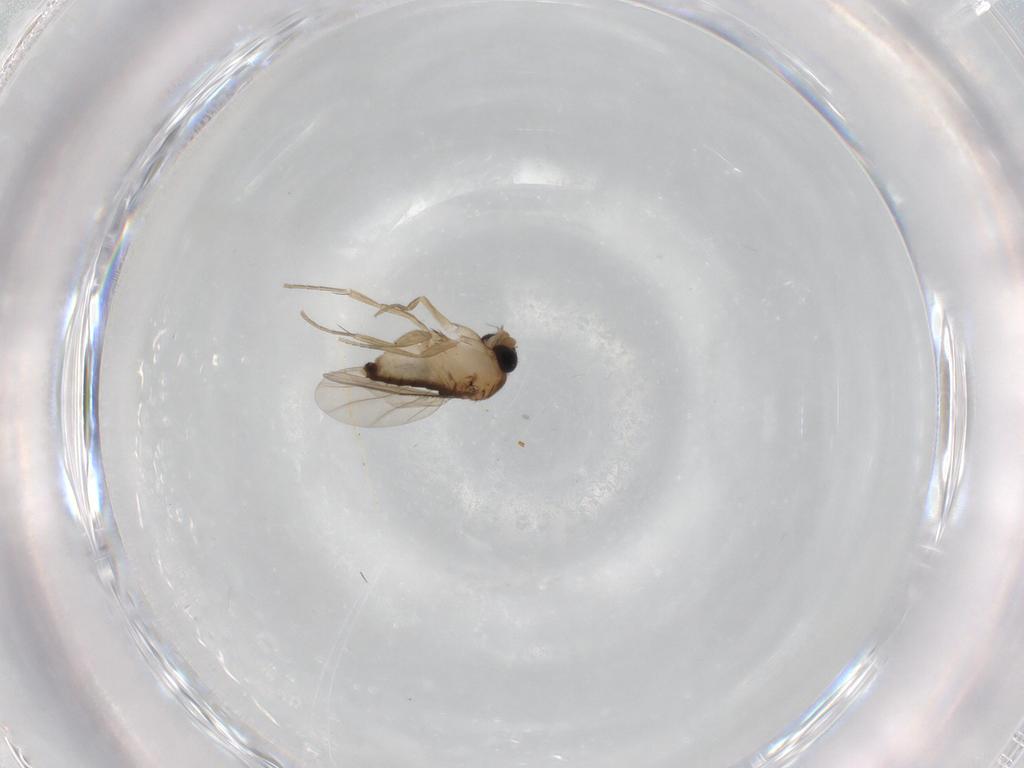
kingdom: Animalia
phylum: Arthropoda
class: Insecta
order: Diptera
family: Phoridae
